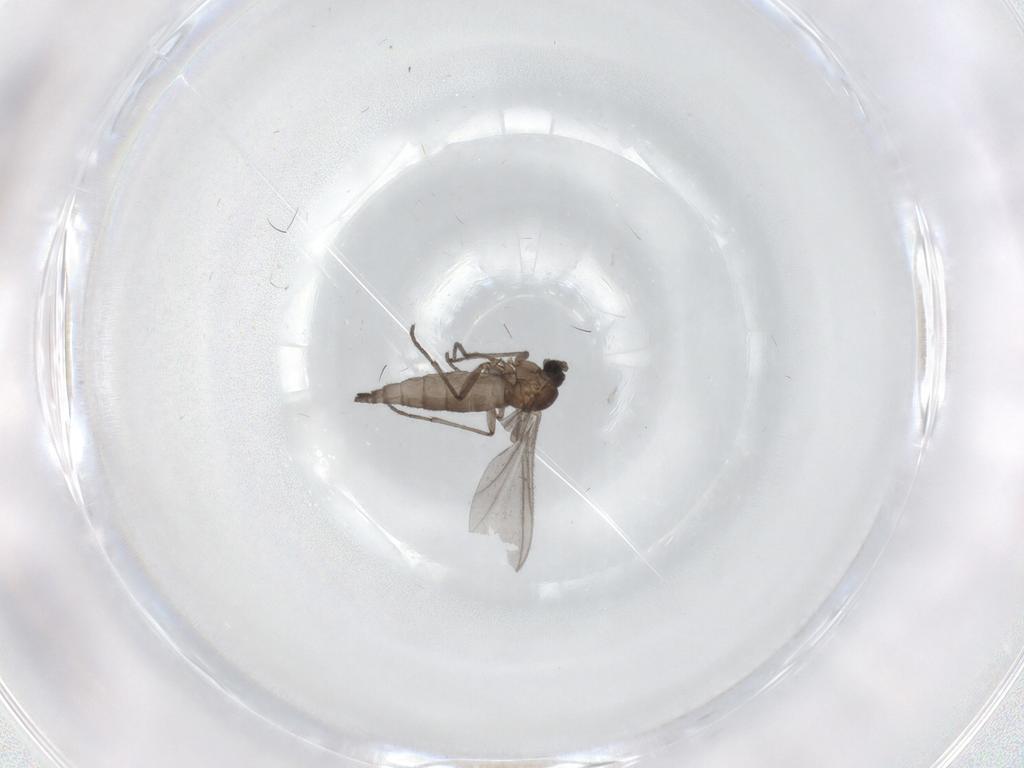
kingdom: Animalia
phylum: Arthropoda
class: Insecta
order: Diptera
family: Sciaridae
